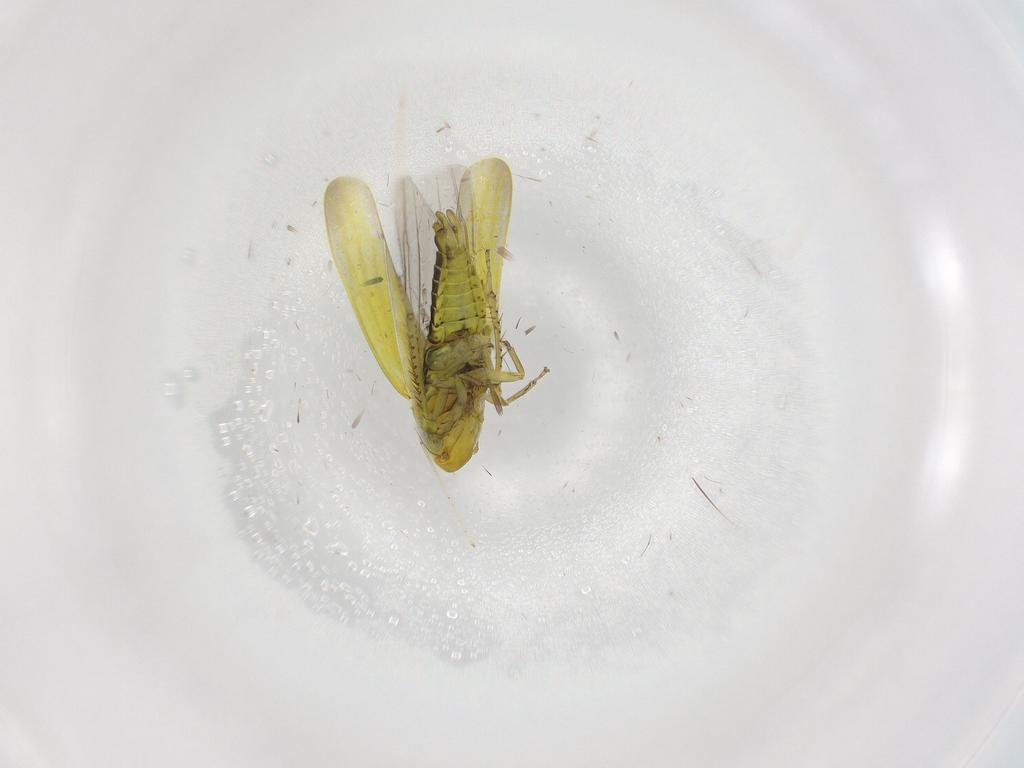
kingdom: Animalia
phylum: Arthropoda
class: Insecta
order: Hemiptera
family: Cicadellidae
